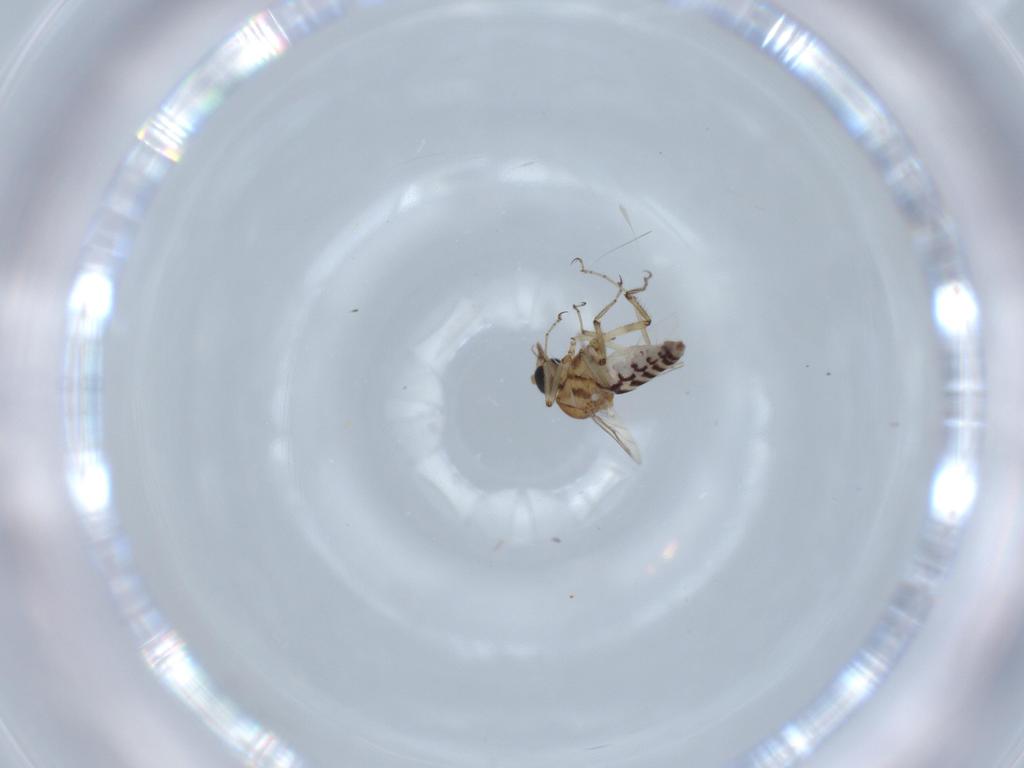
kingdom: Animalia
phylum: Arthropoda
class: Insecta
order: Diptera
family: Ceratopogonidae
